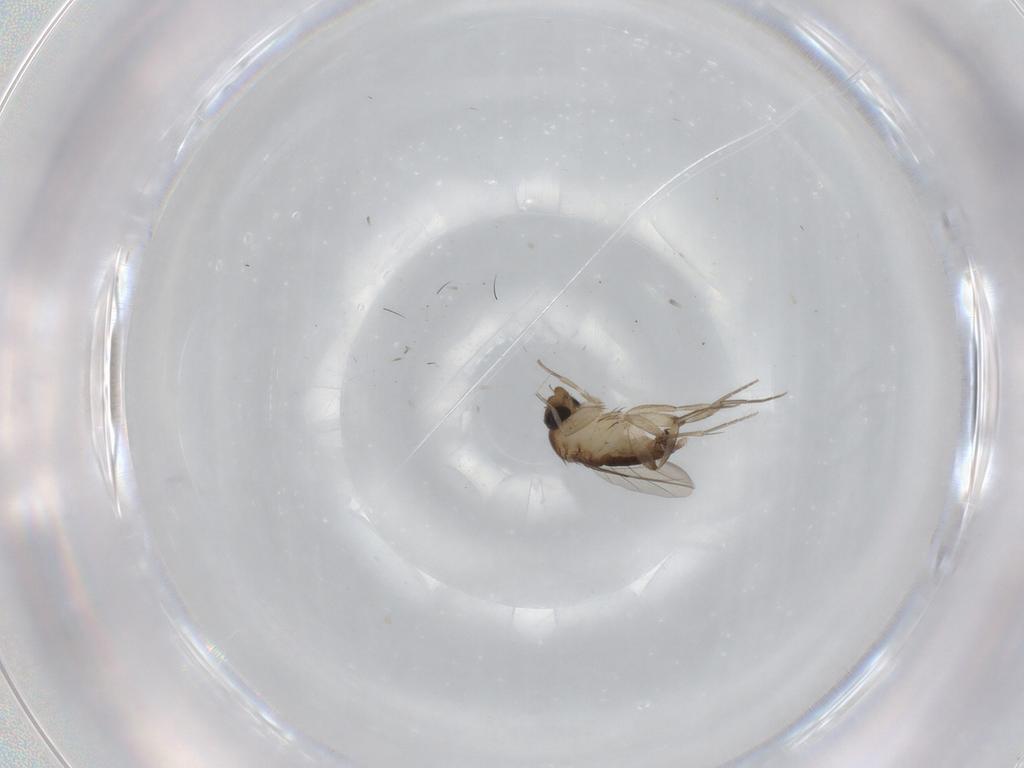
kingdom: Animalia
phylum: Arthropoda
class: Insecta
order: Diptera
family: Phoridae
